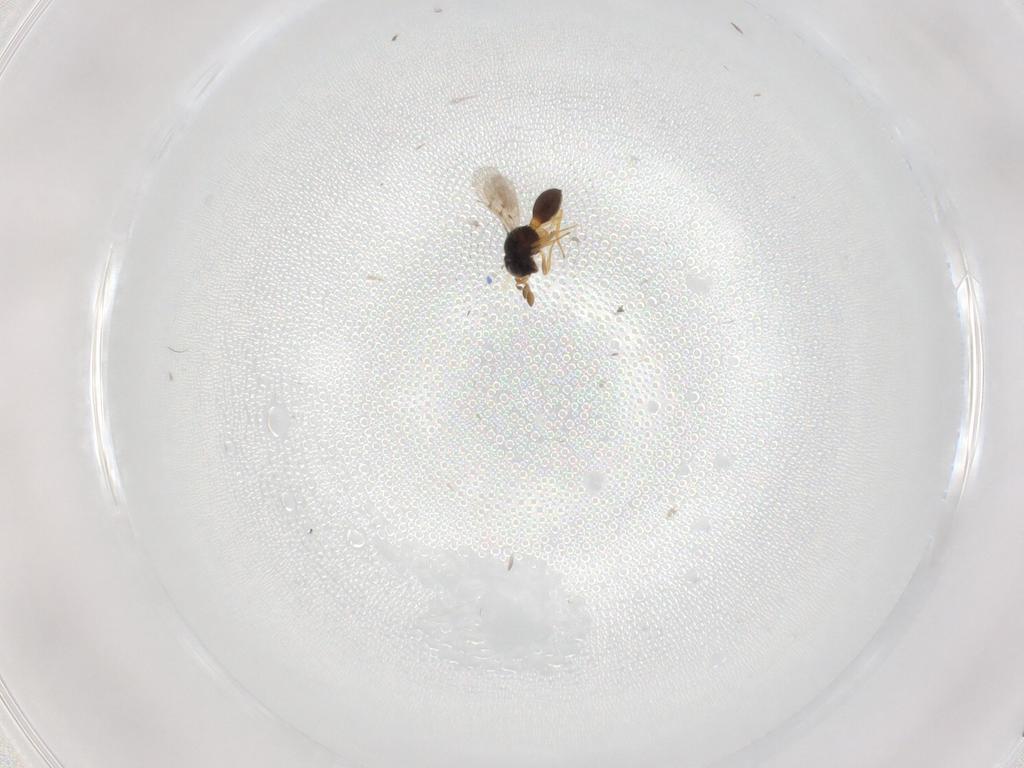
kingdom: Animalia
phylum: Arthropoda
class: Insecta
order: Hymenoptera
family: Scelionidae
